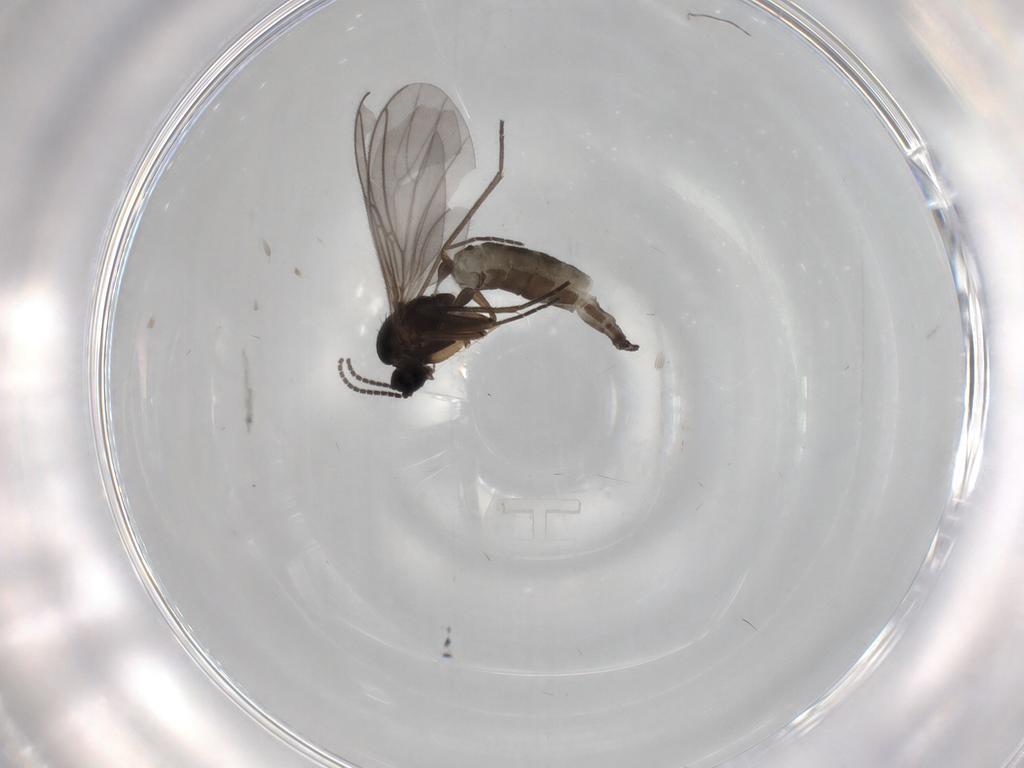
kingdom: Animalia
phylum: Arthropoda
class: Insecta
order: Diptera
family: Sciaridae
